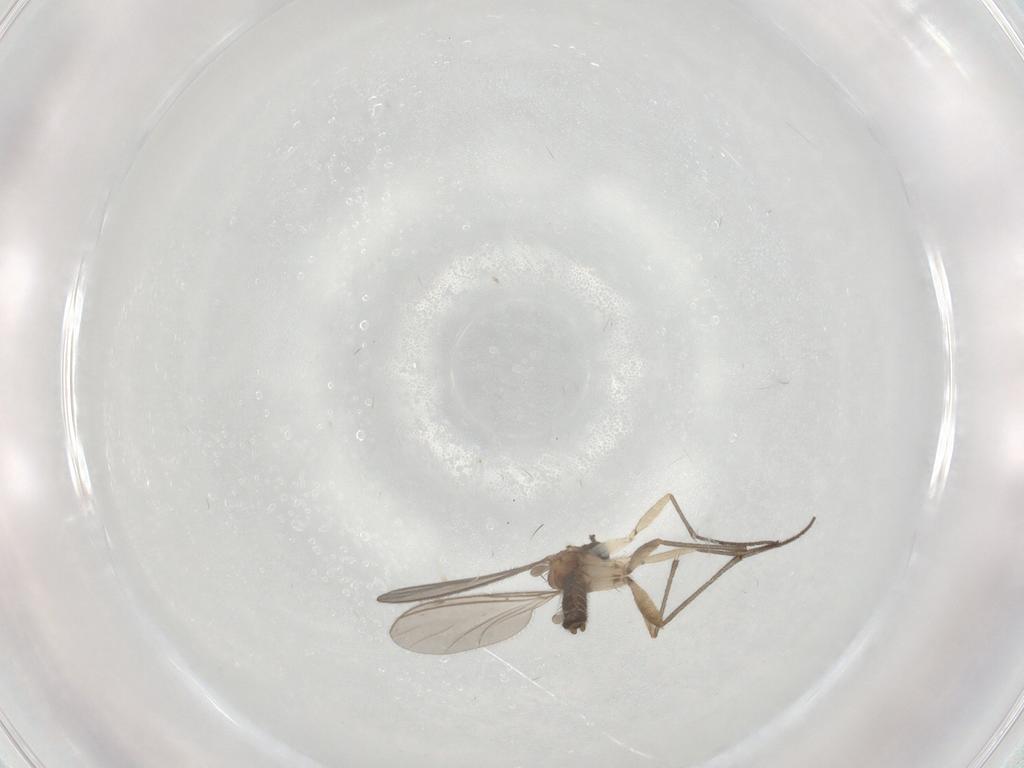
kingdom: Animalia
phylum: Arthropoda
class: Insecta
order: Diptera
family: Sciaridae
